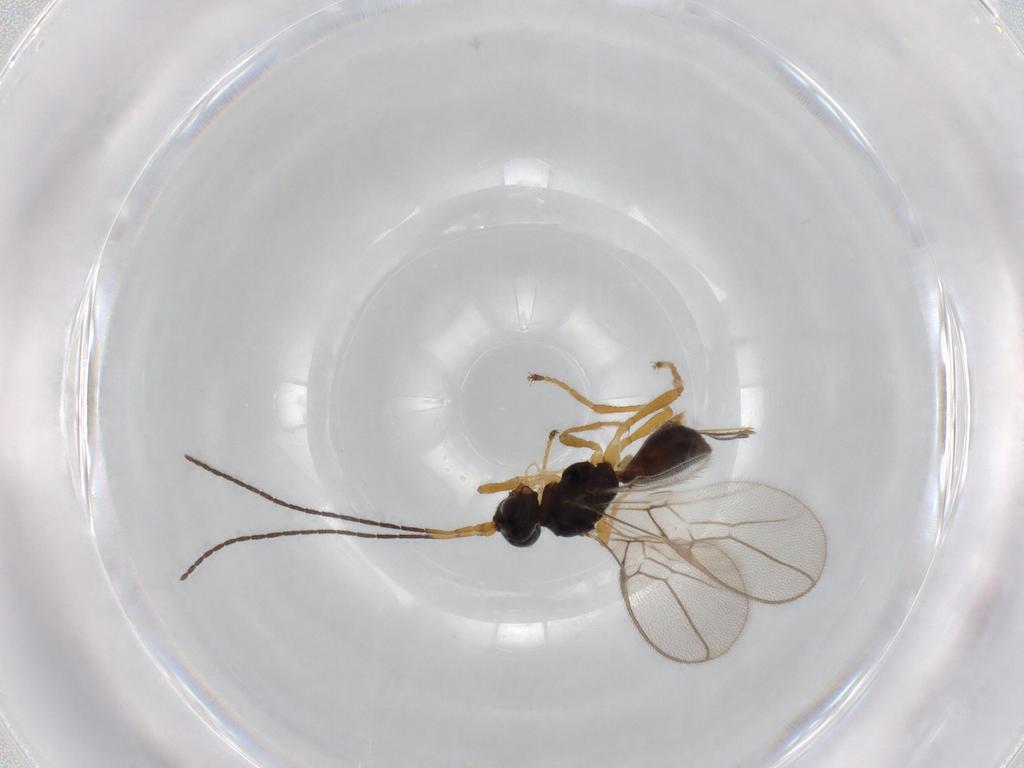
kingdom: Animalia
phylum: Arthropoda
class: Insecta
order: Hymenoptera
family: Braconidae
